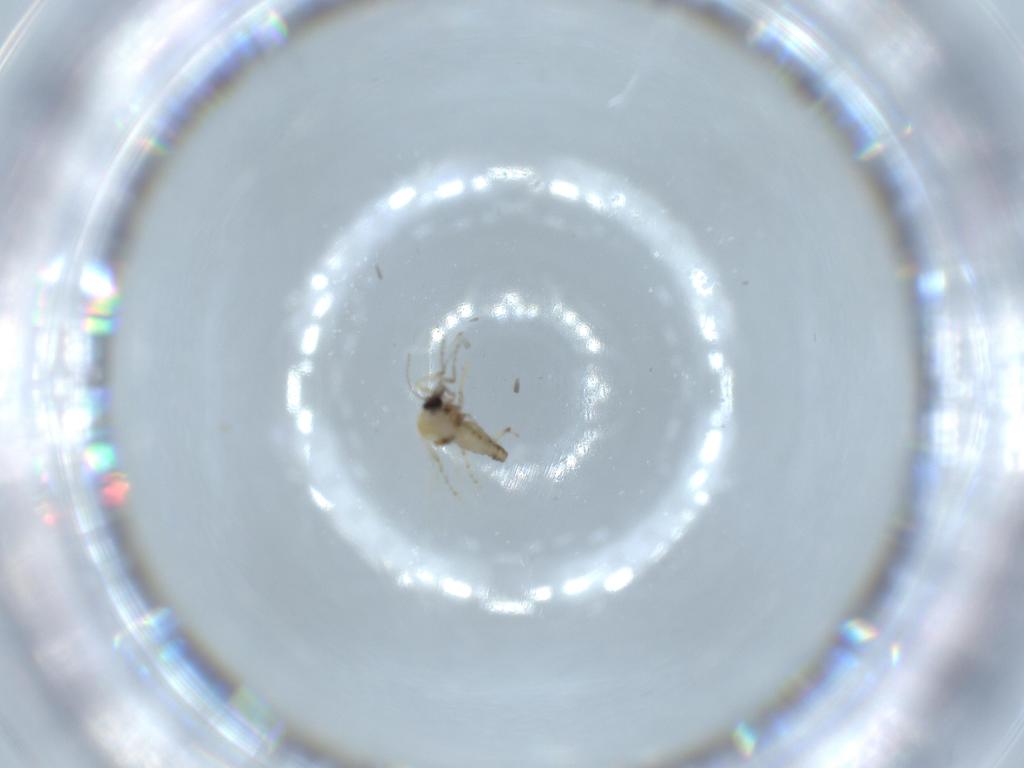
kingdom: Animalia
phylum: Arthropoda
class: Insecta
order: Diptera
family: Ceratopogonidae
